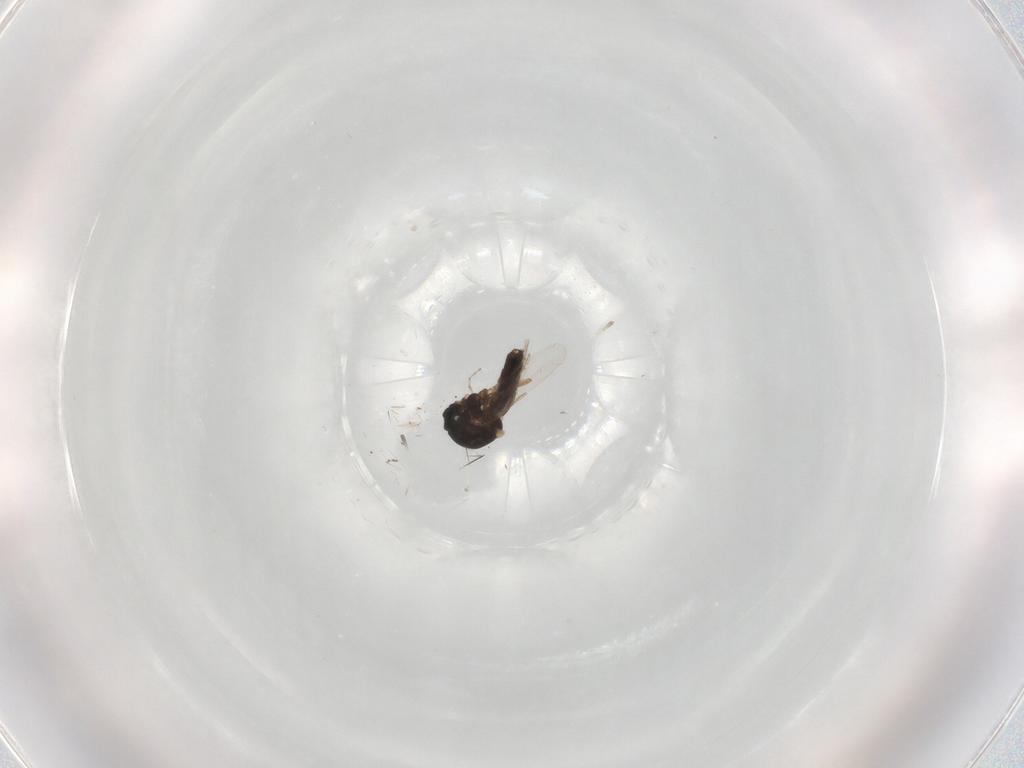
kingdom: Animalia
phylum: Arthropoda
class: Insecta
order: Diptera
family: Ceratopogonidae
